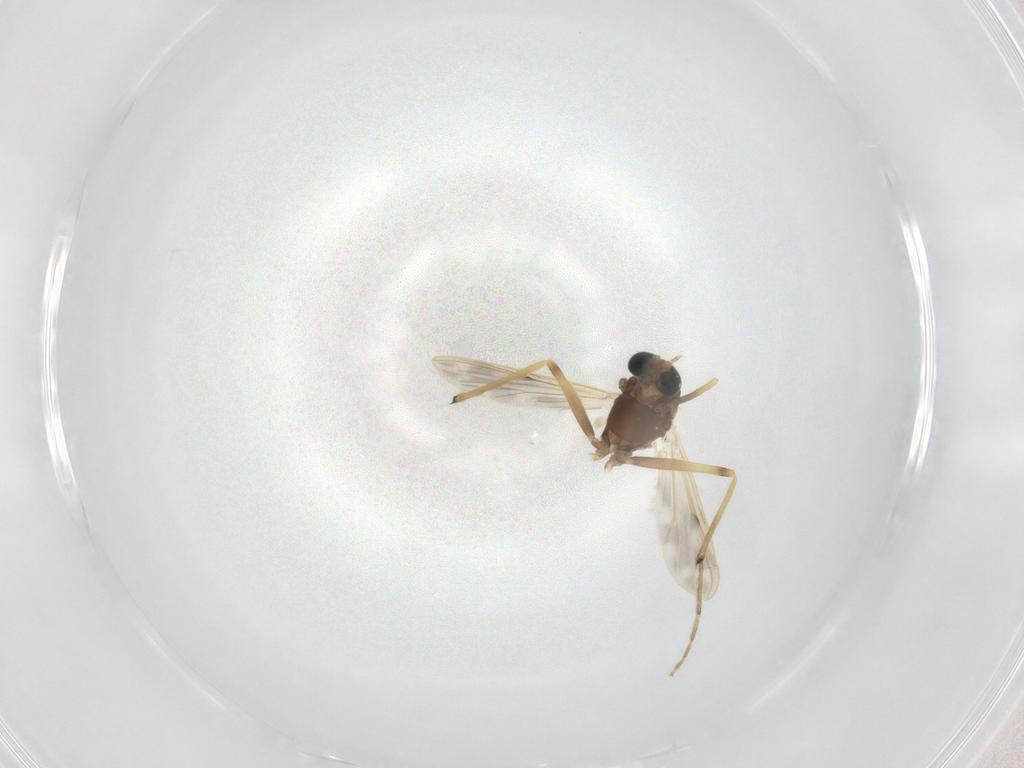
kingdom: Animalia
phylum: Arthropoda
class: Insecta
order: Diptera
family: Chironomidae
